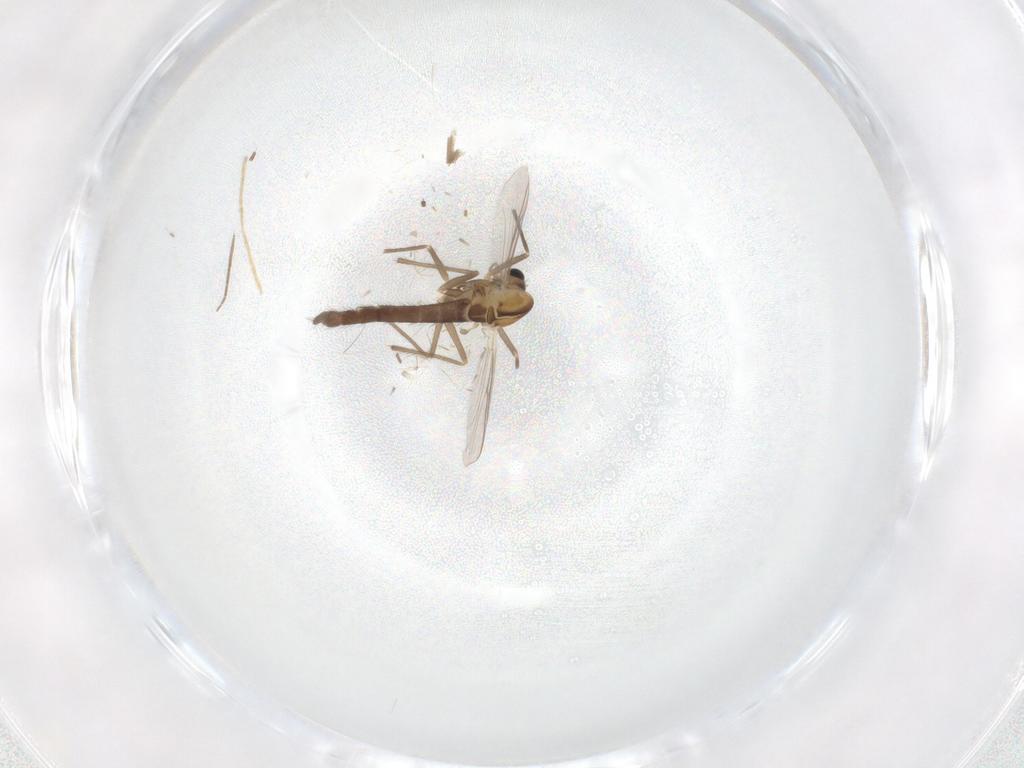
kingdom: Animalia
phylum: Arthropoda
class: Insecta
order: Diptera
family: Chironomidae
